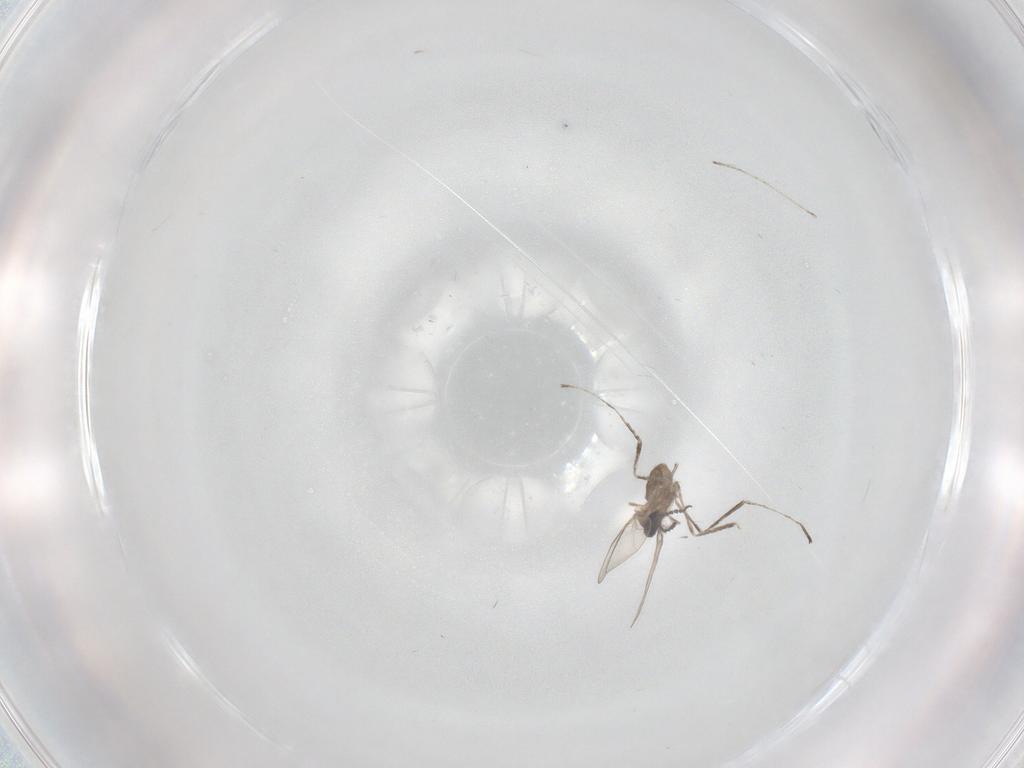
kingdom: Animalia
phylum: Arthropoda
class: Insecta
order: Diptera
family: Cecidomyiidae
